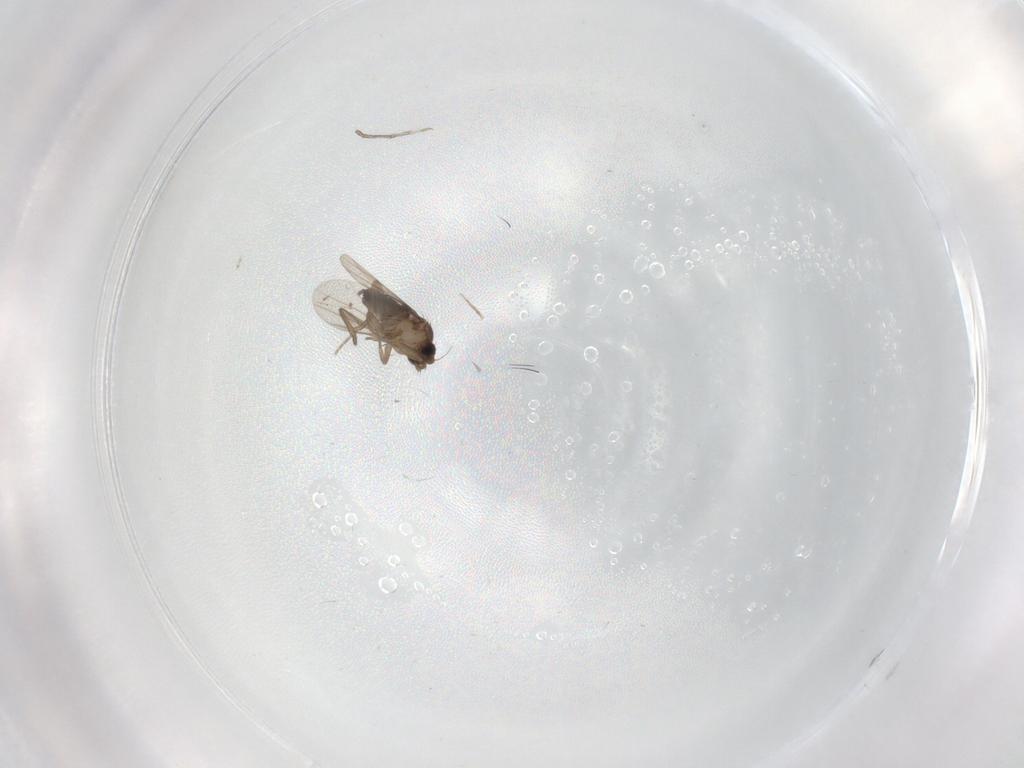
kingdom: Animalia
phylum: Arthropoda
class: Insecta
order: Diptera
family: Phoridae
